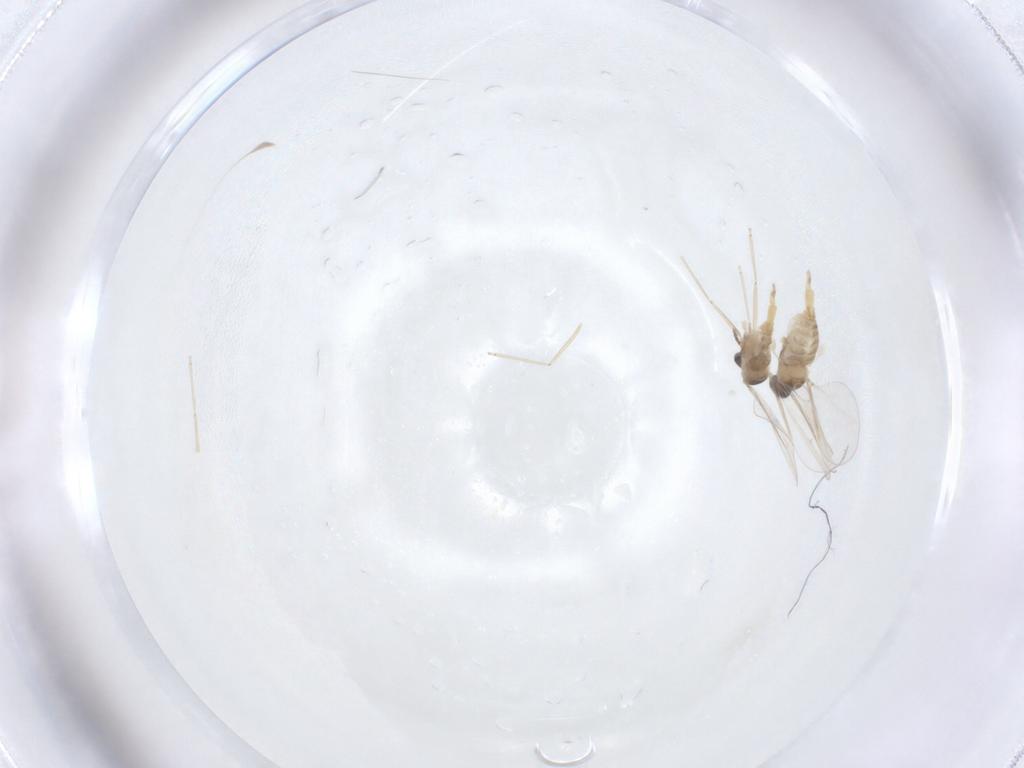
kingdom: Animalia
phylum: Arthropoda
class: Insecta
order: Diptera
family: Cecidomyiidae
